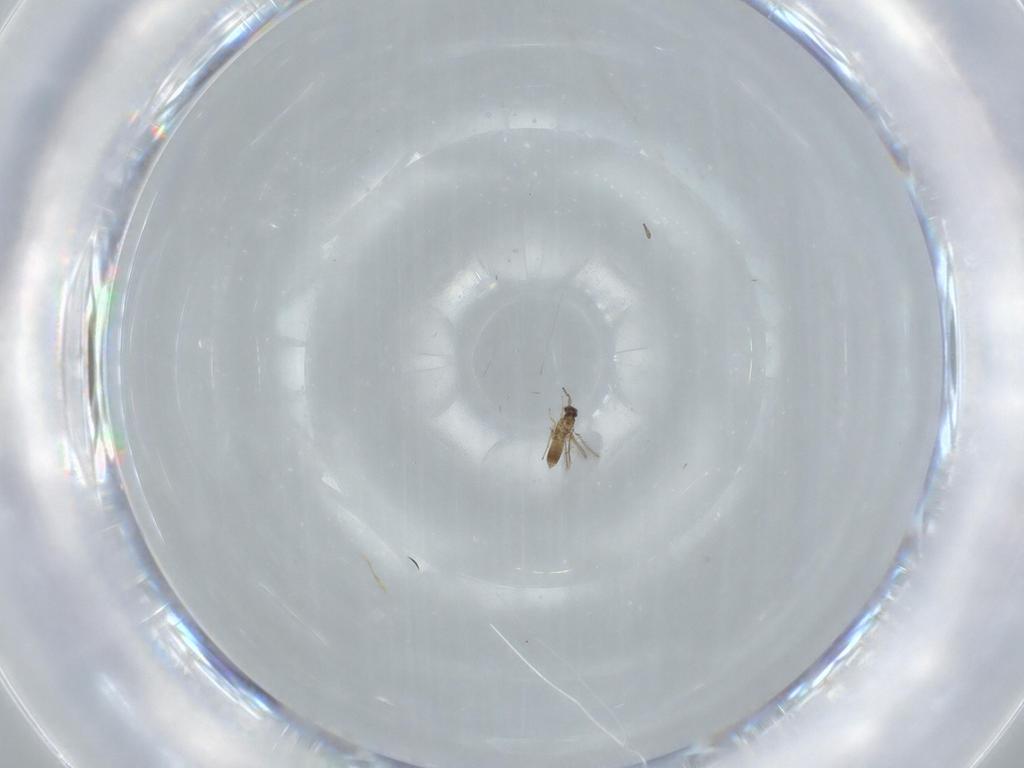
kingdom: Animalia
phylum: Arthropoda
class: Insecta
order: Hymenoptera
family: Mymaridae
